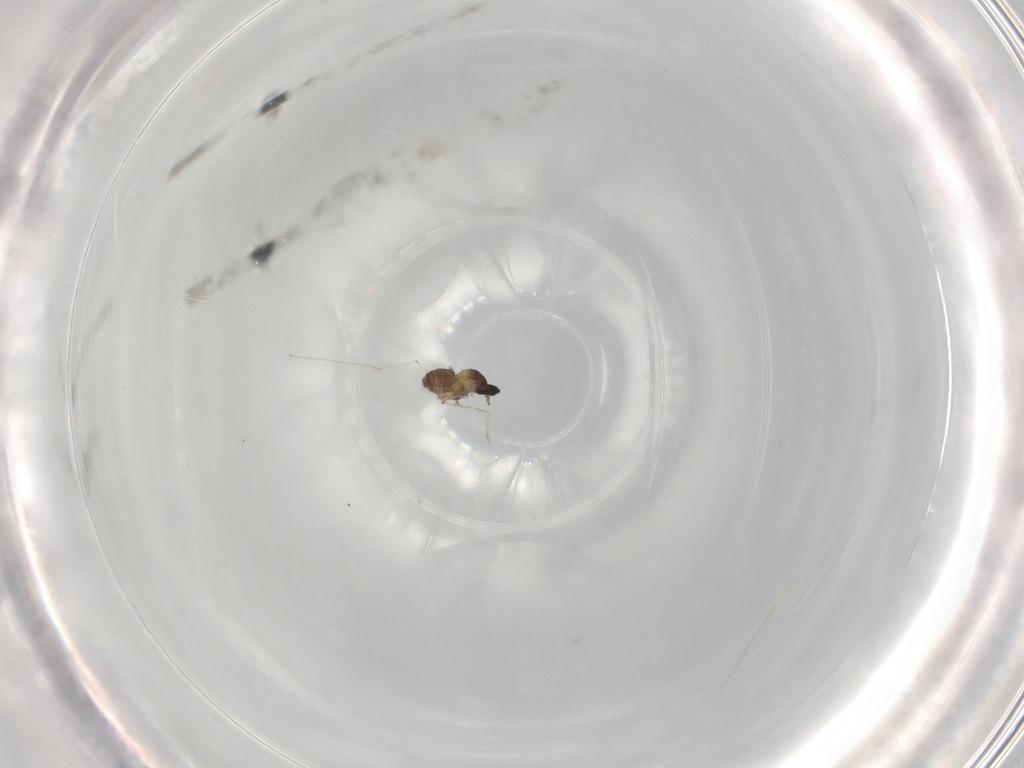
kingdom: Animalia
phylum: Arthropoda
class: Insecta
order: Diptera
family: Cecidomyiidae
